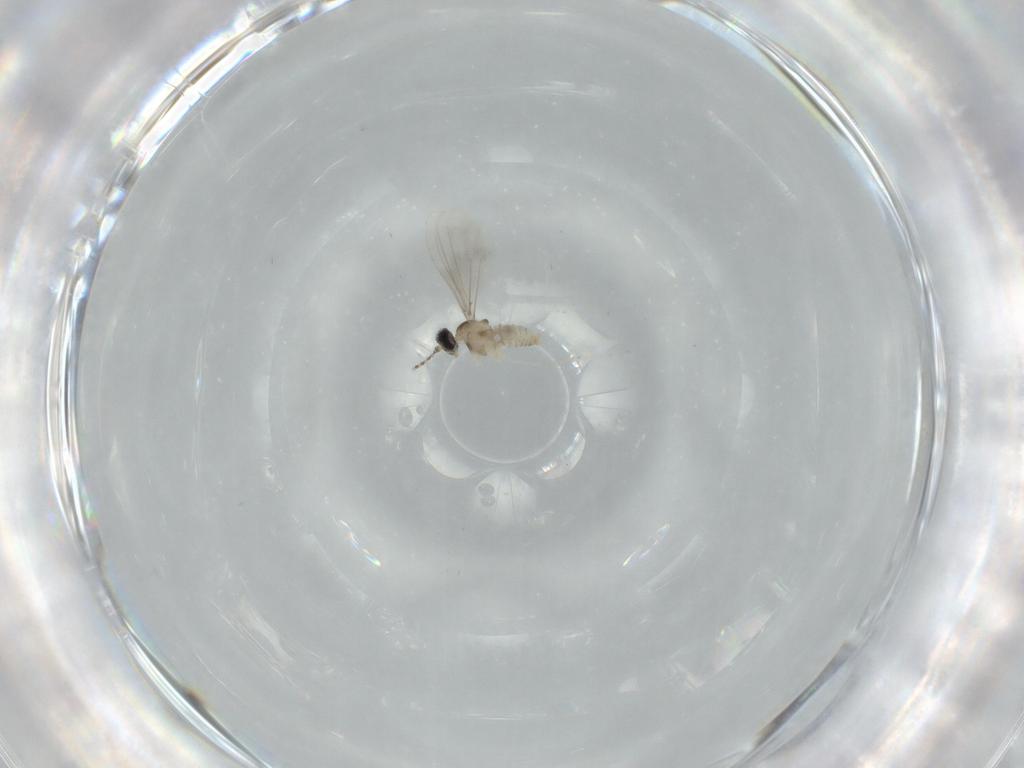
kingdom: Animalia
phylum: Arthropoda
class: Insecta
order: Diptera
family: Cecidomyiidae
